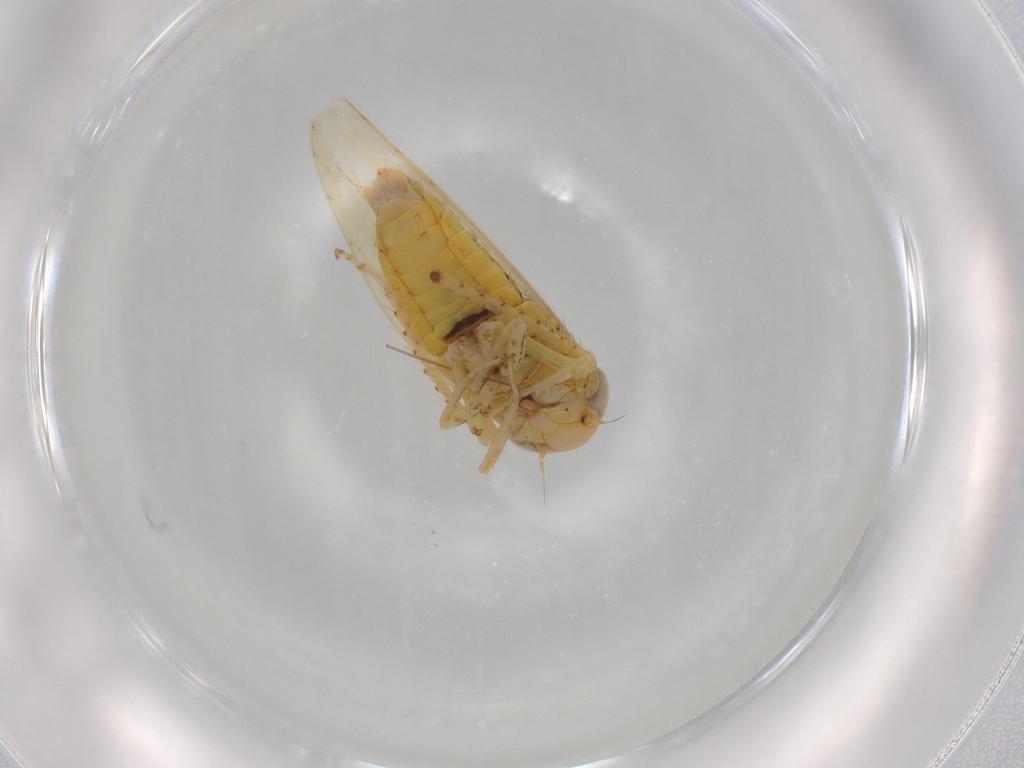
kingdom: Animalia
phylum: Arthropoda
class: Insecta
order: Hemiptera
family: Cicadellidae
